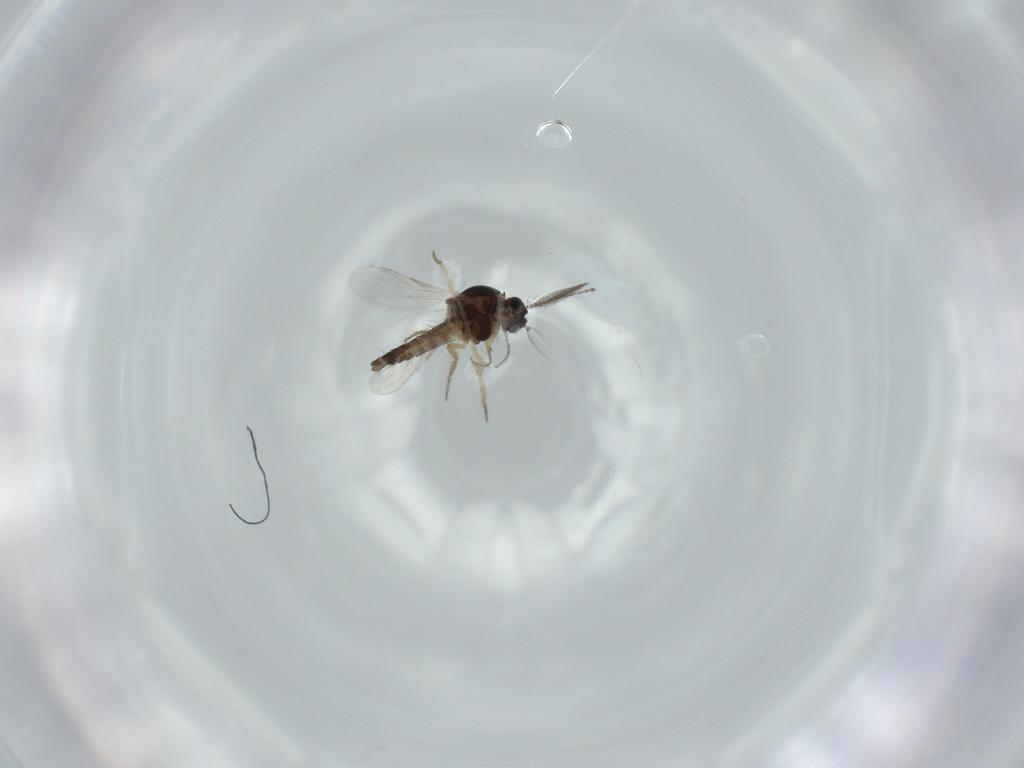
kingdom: Animalia
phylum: Arthropoda
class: Insecta
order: Diptera
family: Ceratopogonidae
